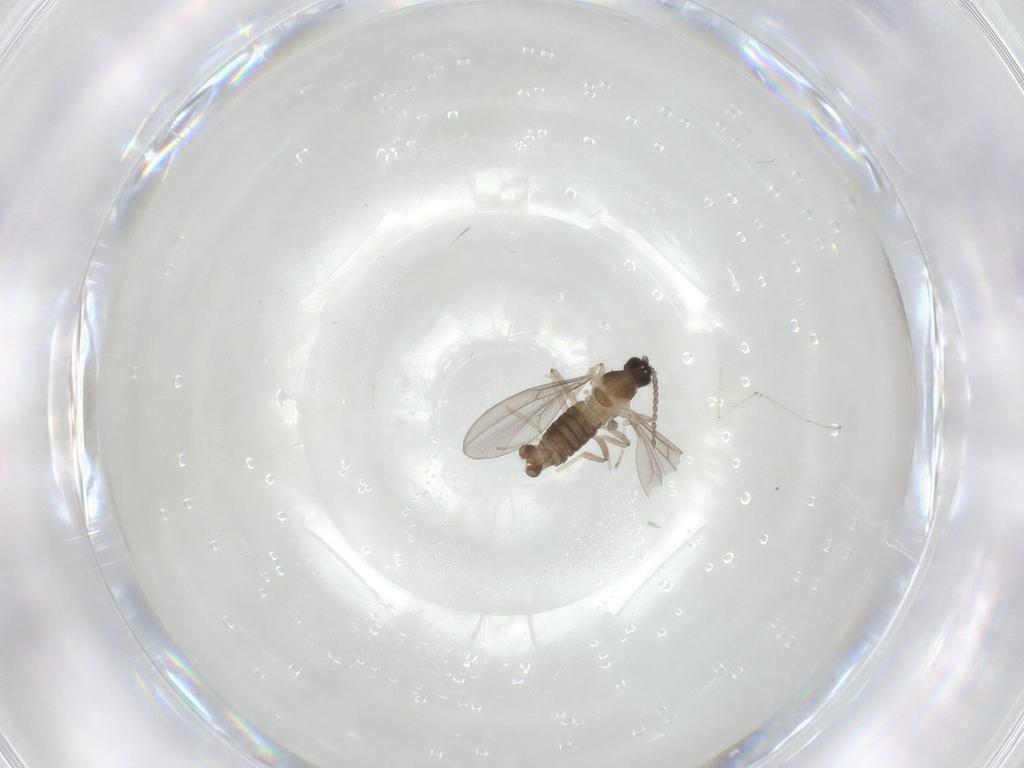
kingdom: Animalia
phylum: Arthropoda
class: Insecta
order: Diptera
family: Cecidomyiidae
